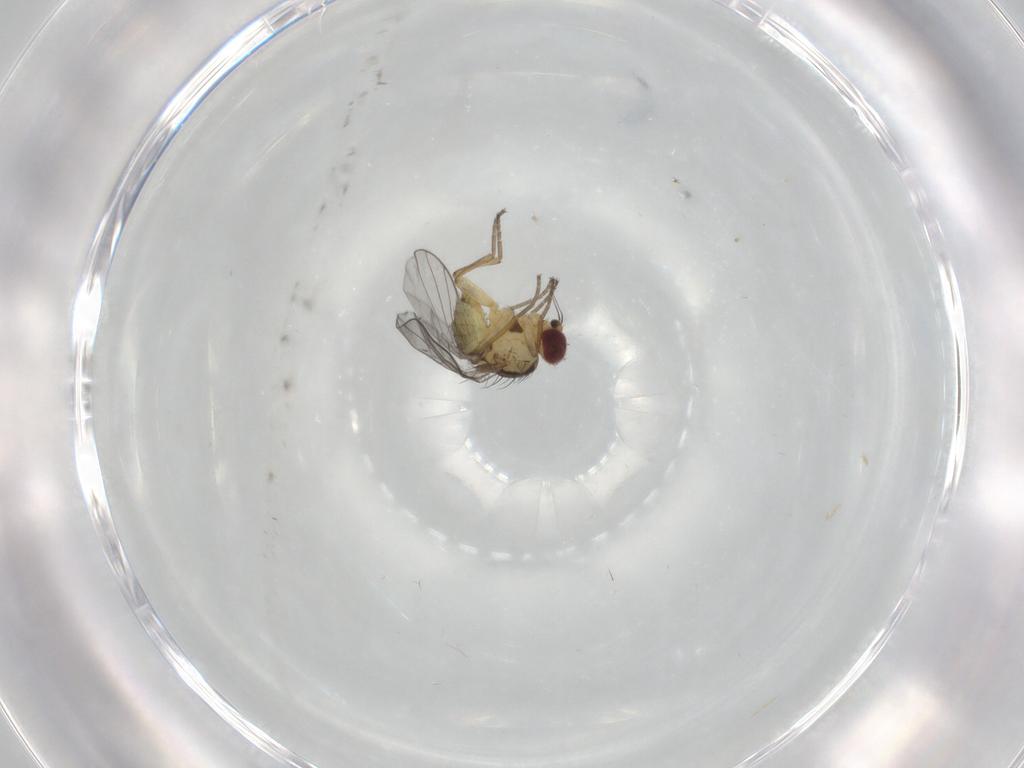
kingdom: Animalia
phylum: Arthropoda
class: Insecta
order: Diptera
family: Agromyzidae
